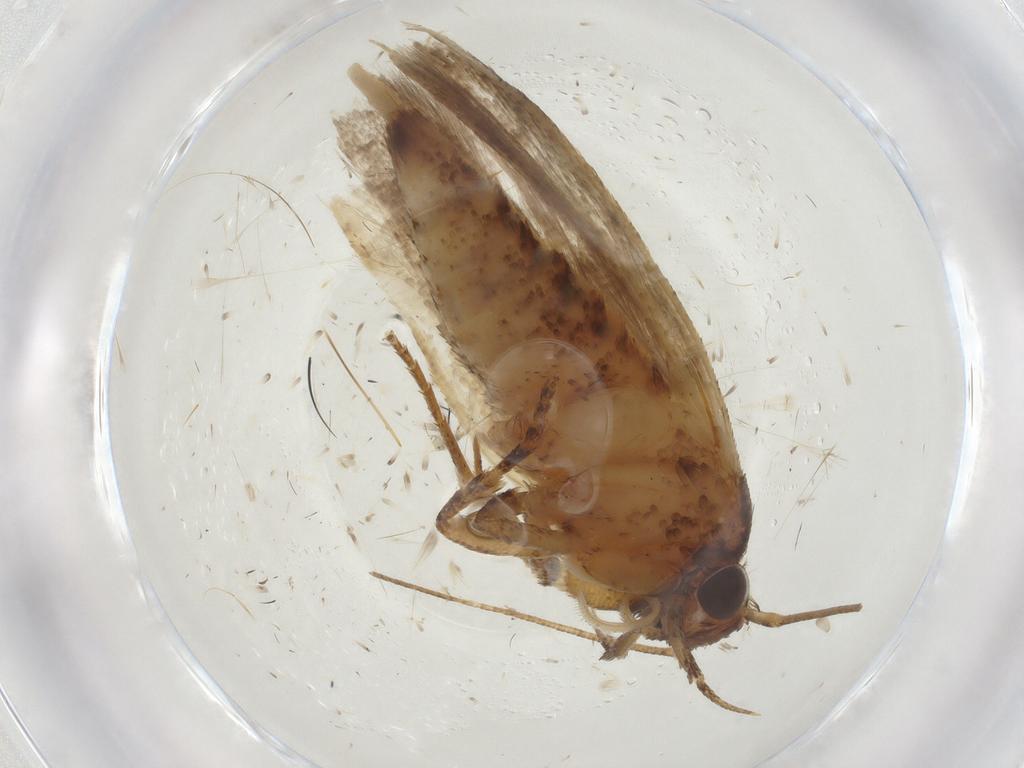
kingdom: Animalia
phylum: Arthropoda
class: Insecta
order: Lepidoptera
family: Gelechiidae
